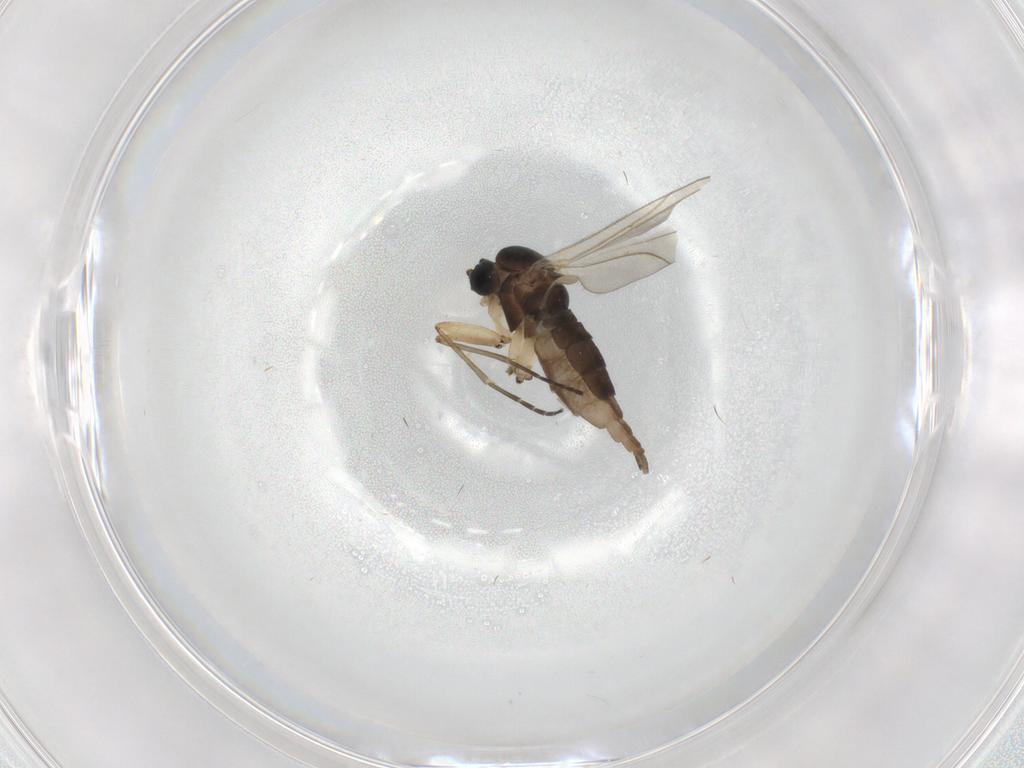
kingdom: Animalia
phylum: Arthropoda
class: Insecta
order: Diptera
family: Sciaridae
